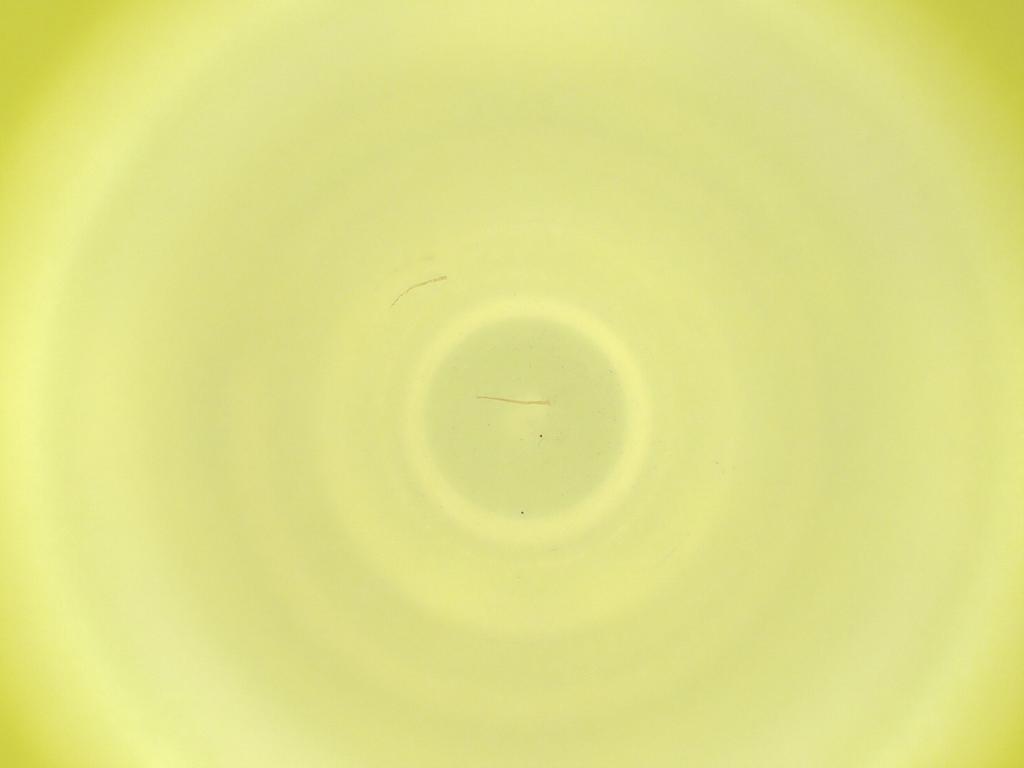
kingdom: Animalia
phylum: Arthropoda
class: Insecta
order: Diptera
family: Cecidomyiidae
